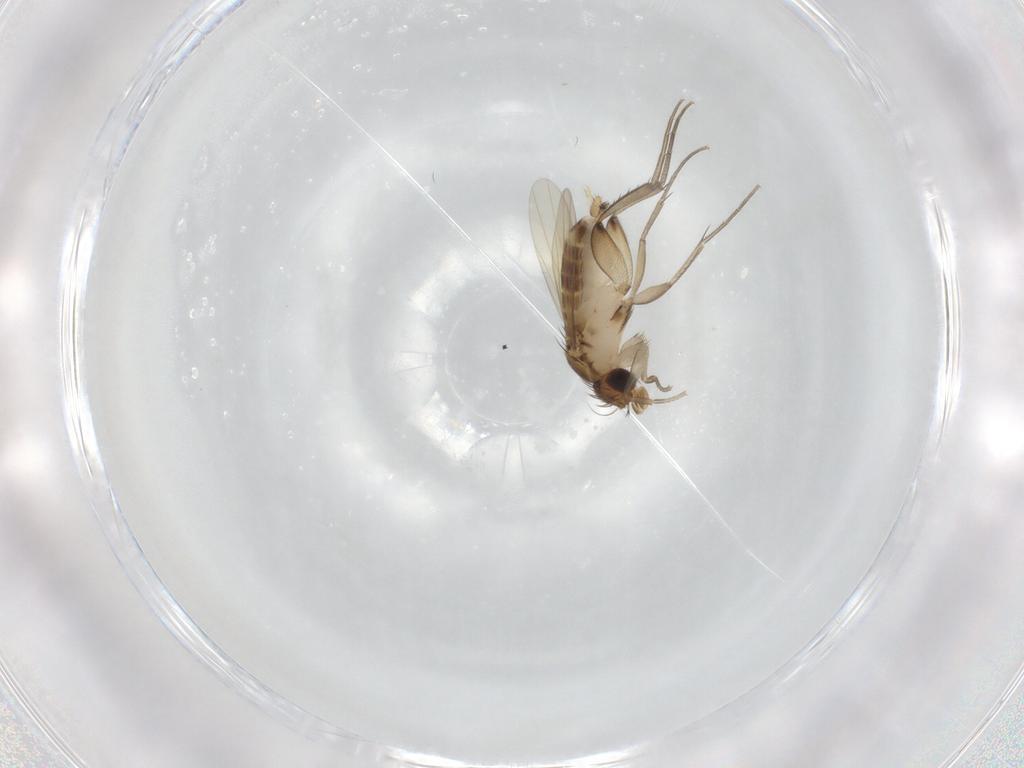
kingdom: Animalia
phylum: Arthropoda
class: Insecta
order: Diptera
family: Phoridae
